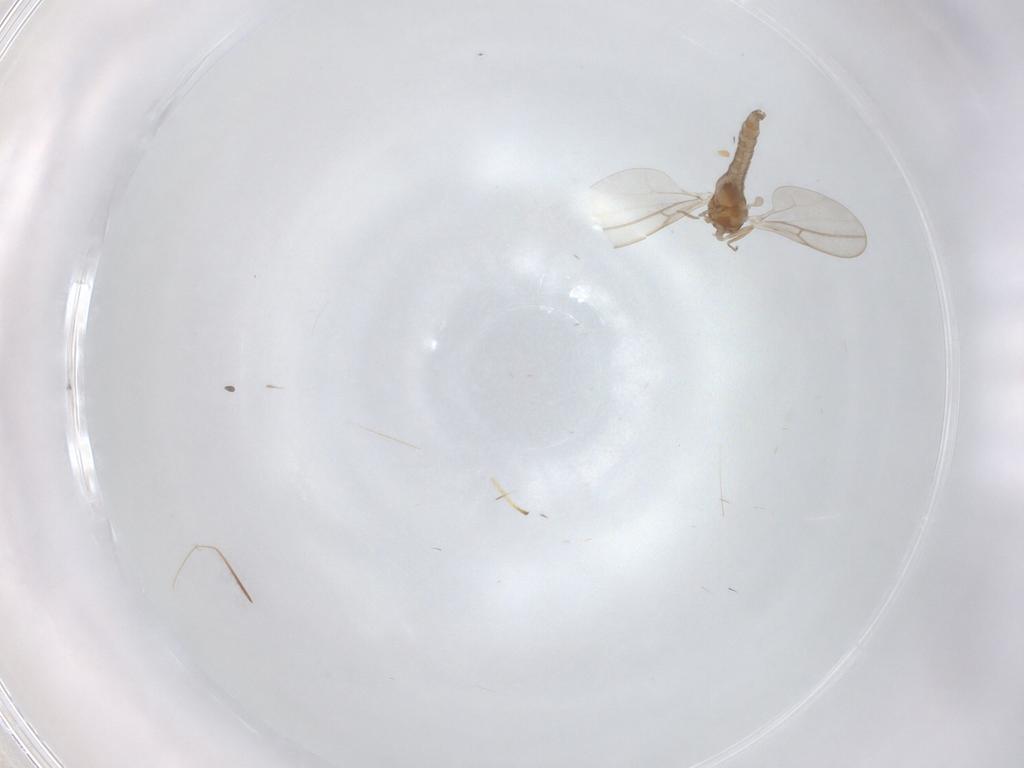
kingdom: Animalia
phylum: Arthropoda
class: Insecta
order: Diptera
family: Cecidomyiidae
